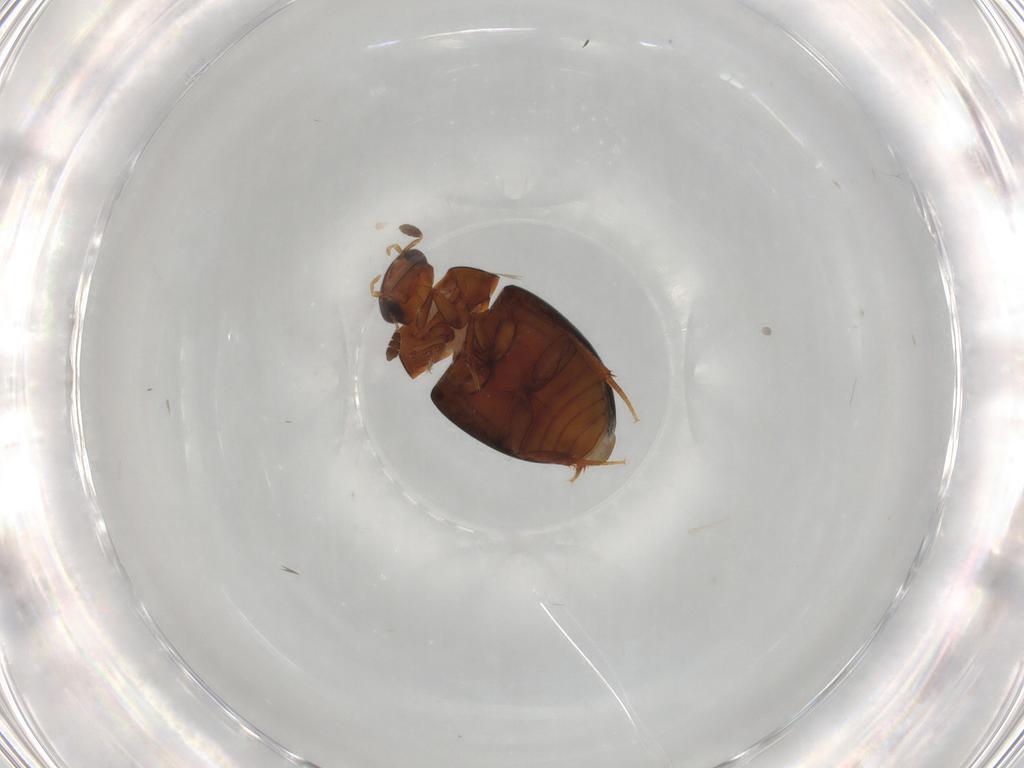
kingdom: Animalia
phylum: Arthropoda
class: Insecta
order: Coleoptera
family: Hydrophilidae
